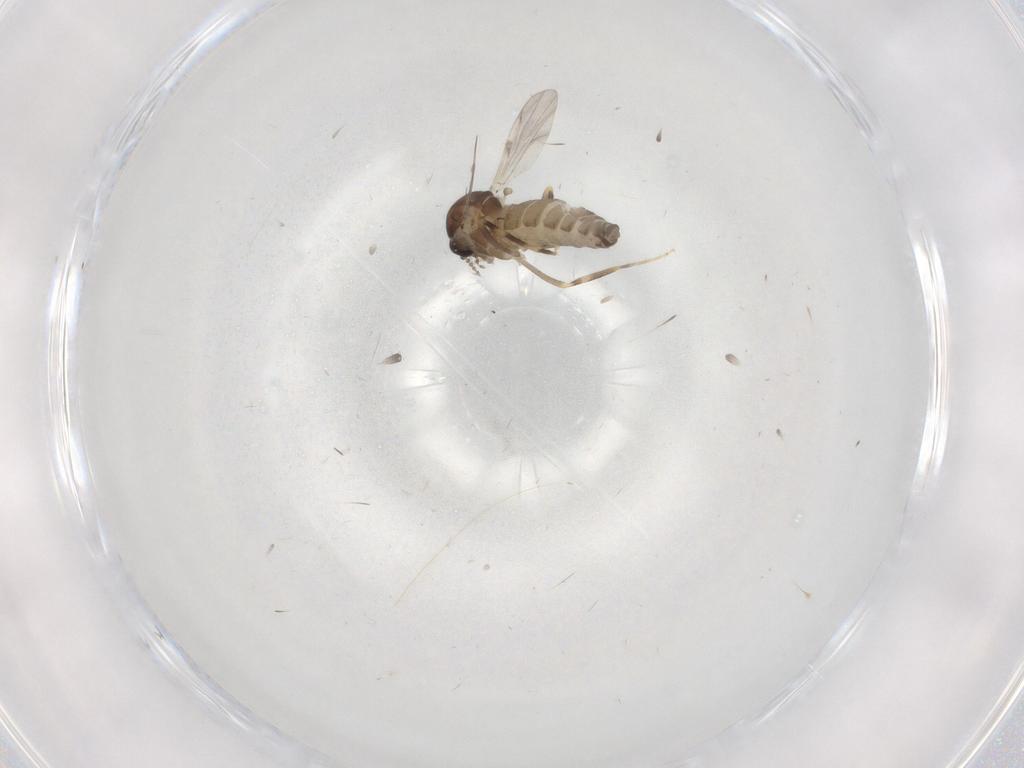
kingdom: Animalia
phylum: Arthropoda
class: Insecta
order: Diptera
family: Ceratopogonidae
